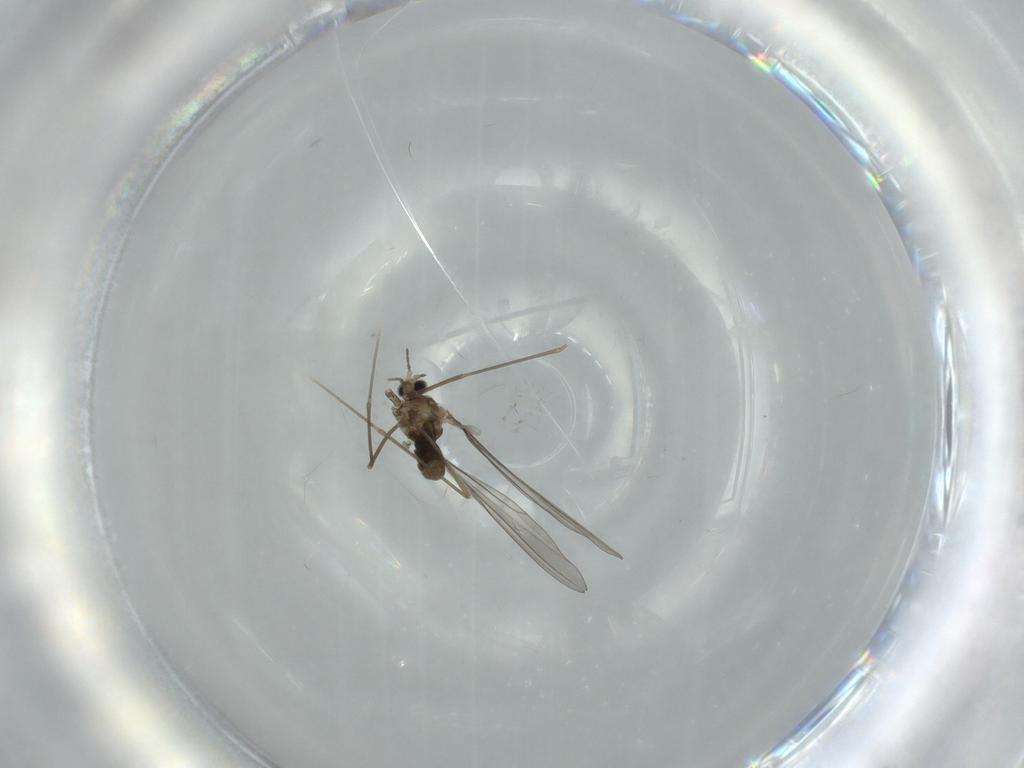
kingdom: Animalia
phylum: Arthropoda
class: Insecta
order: Diptera
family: Cecidomyiidae
